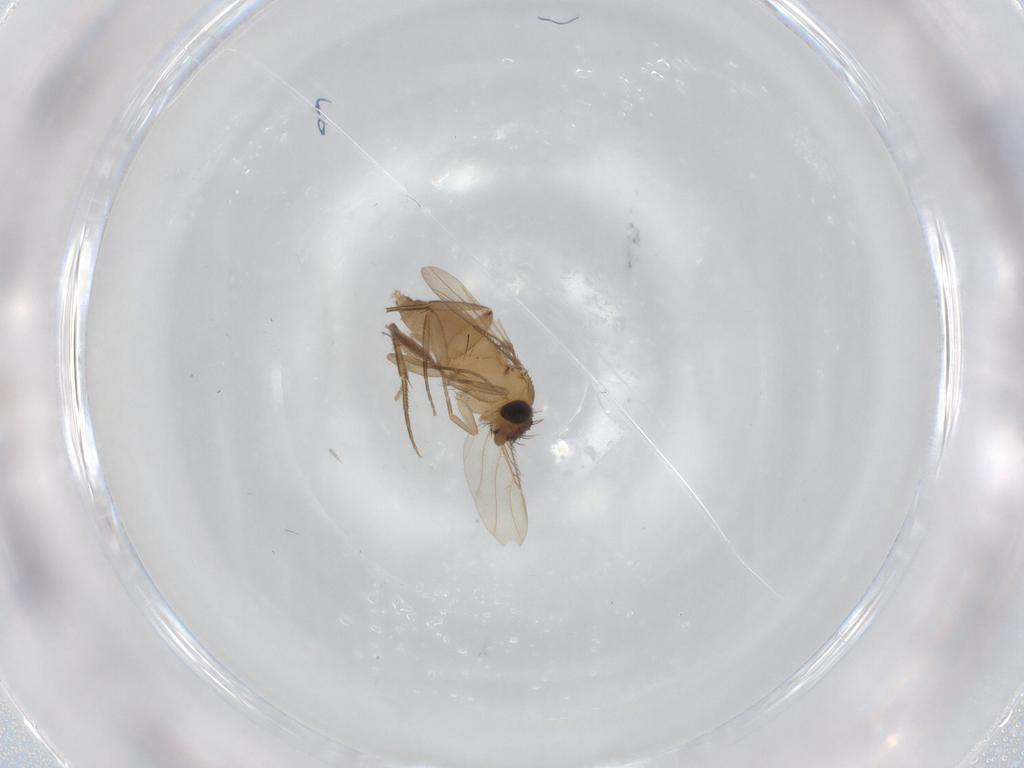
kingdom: Animalia
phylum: Arthropoda
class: Insecta
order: Diptera
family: Phoridae
